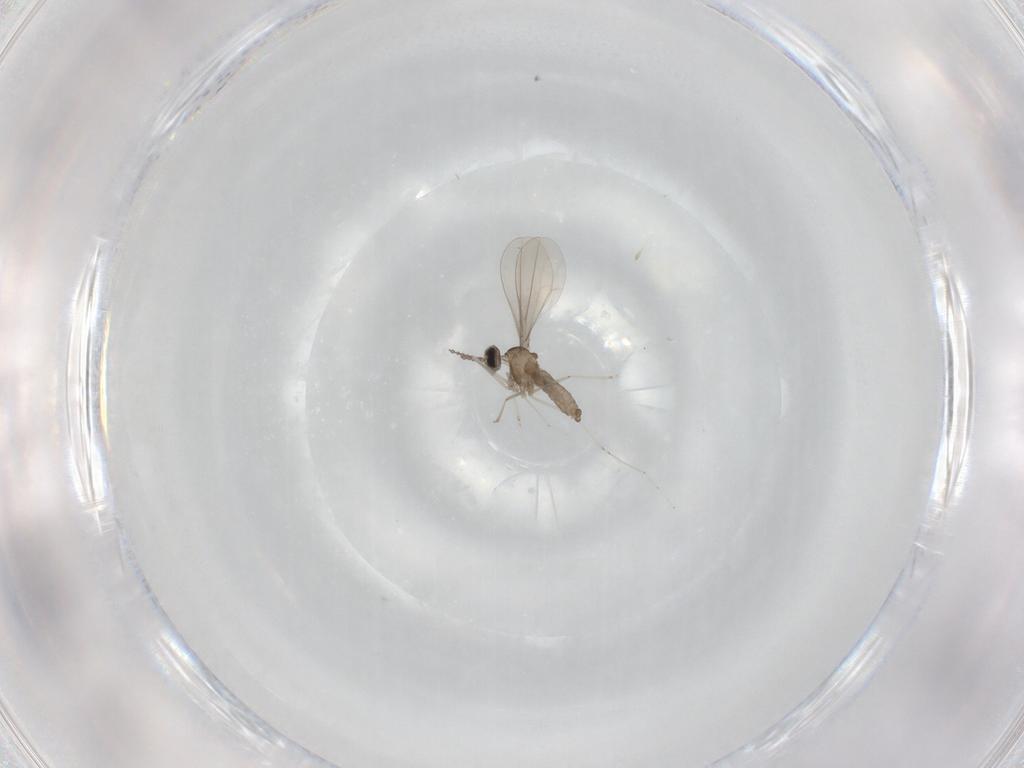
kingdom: Animalia
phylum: Arthropoda
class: Insecta
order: Diptera
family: Cecidomyiidae
